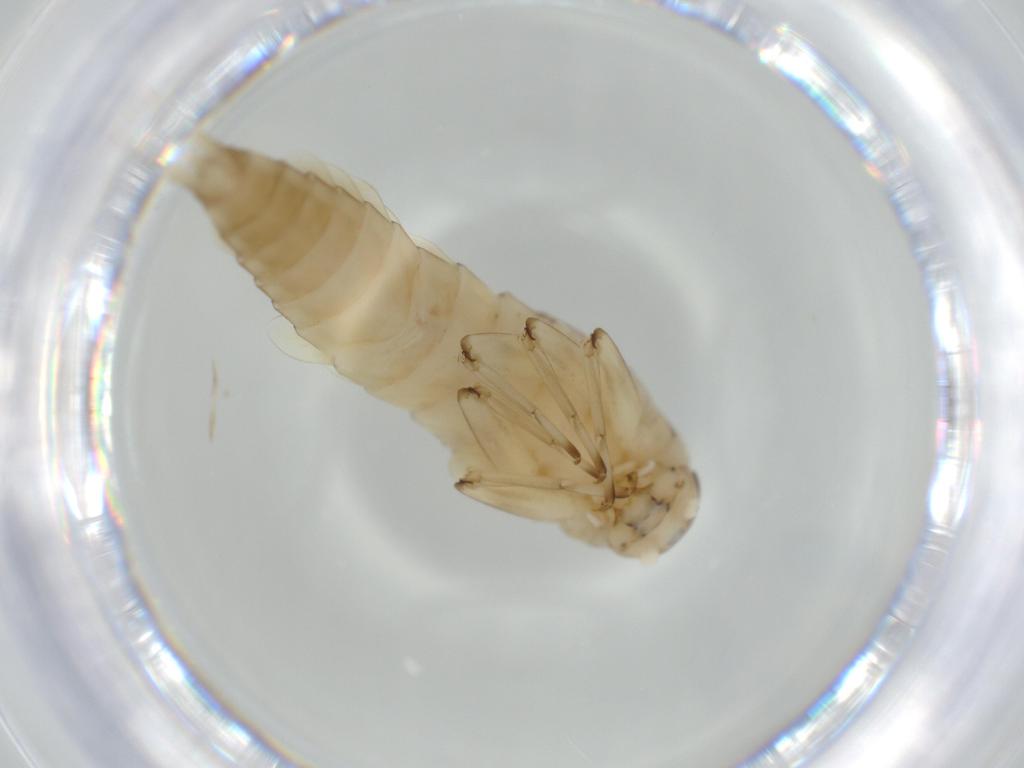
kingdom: Animalia
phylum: Arthropoda
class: Insecta
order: Ephemeroptera
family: Baetidae
